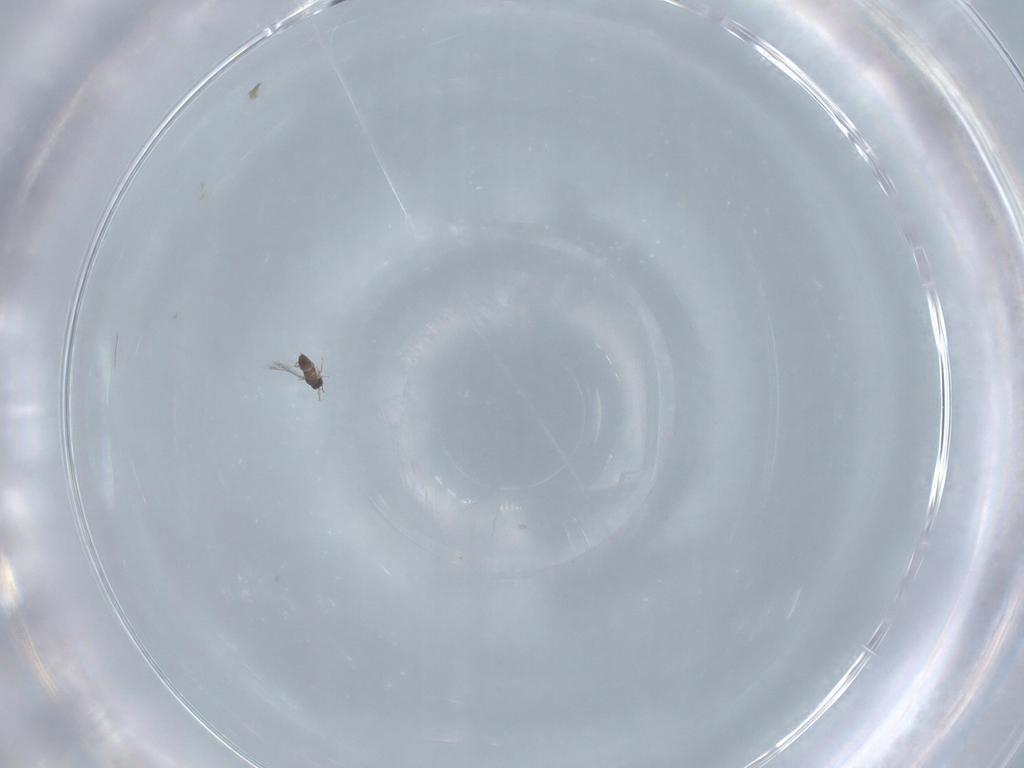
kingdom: Animalia
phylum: Arthropoda
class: Insecta
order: Hymenoptera
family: Mymaridae
